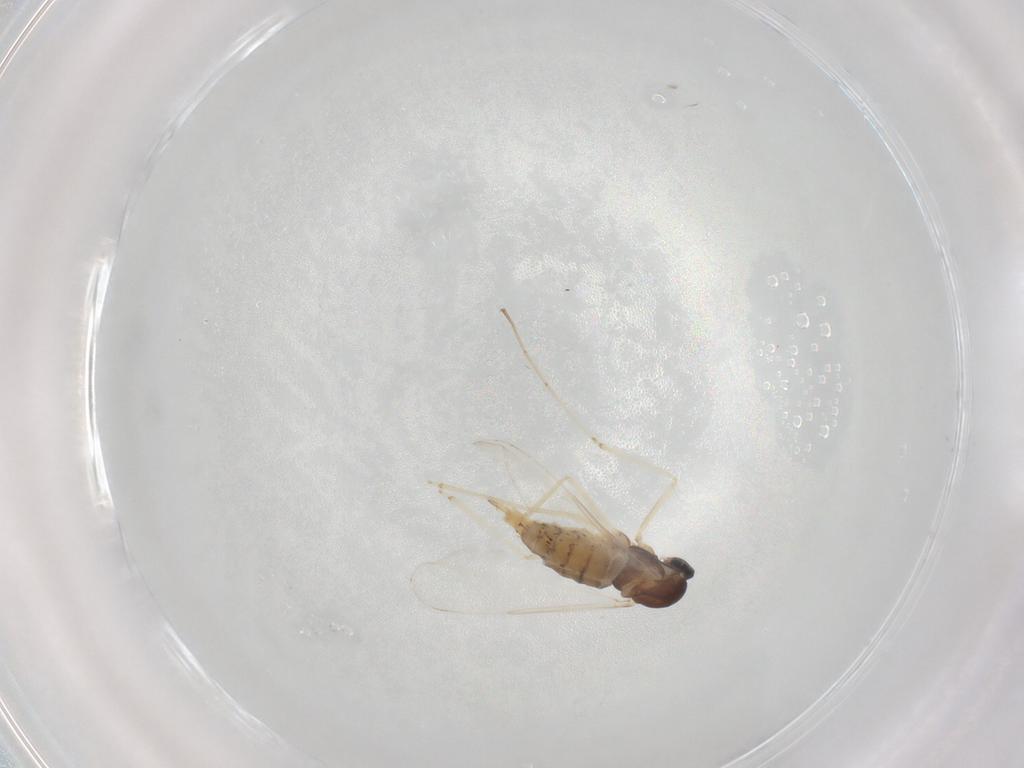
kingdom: Animalia
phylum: Arthropoda
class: Insecta
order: Diptera
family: Cecidomyiidae
